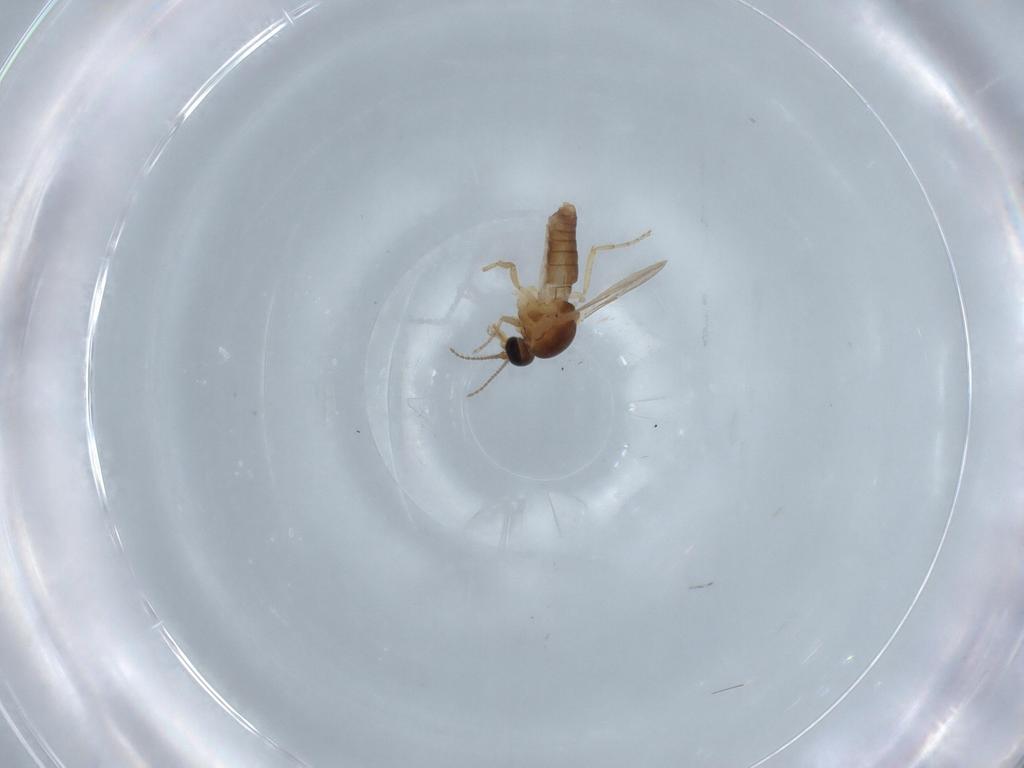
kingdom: Animalia
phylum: Arthropoda
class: Insecta
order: Diptera
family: Ceratopogonidae
